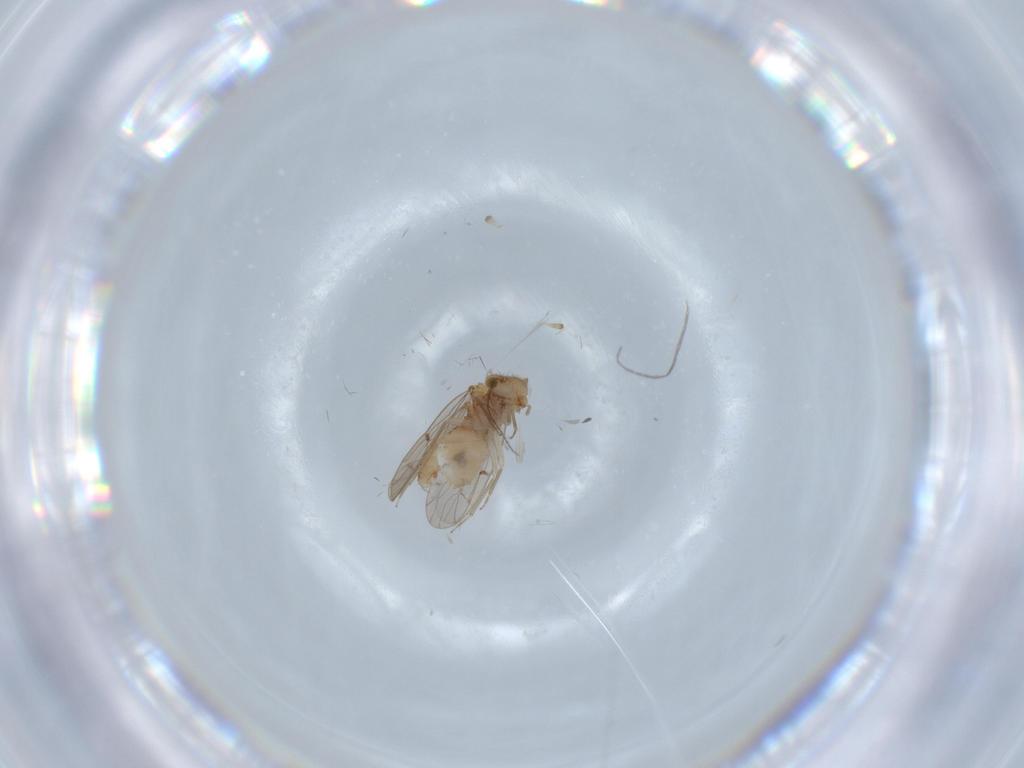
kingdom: Animalia
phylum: Arthropoda
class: Insecta
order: Psocodea
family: Ectopsocidae
